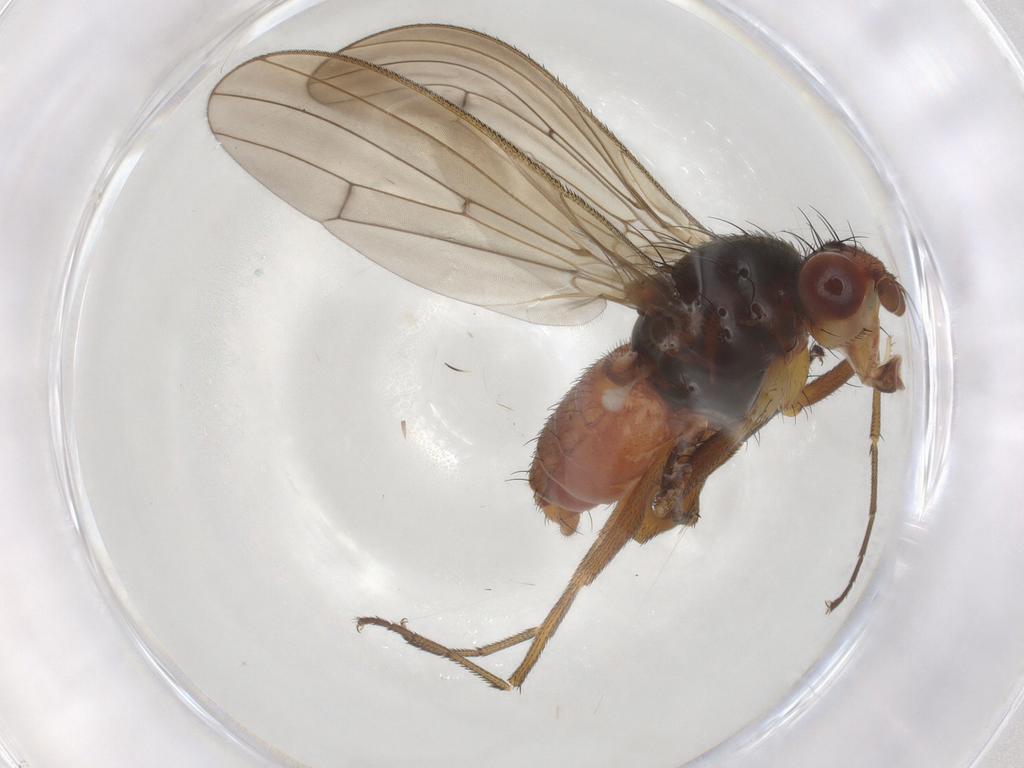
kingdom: Animalia
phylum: Arthropoda
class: Insecta
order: Diptera
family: Heleomyzidae
